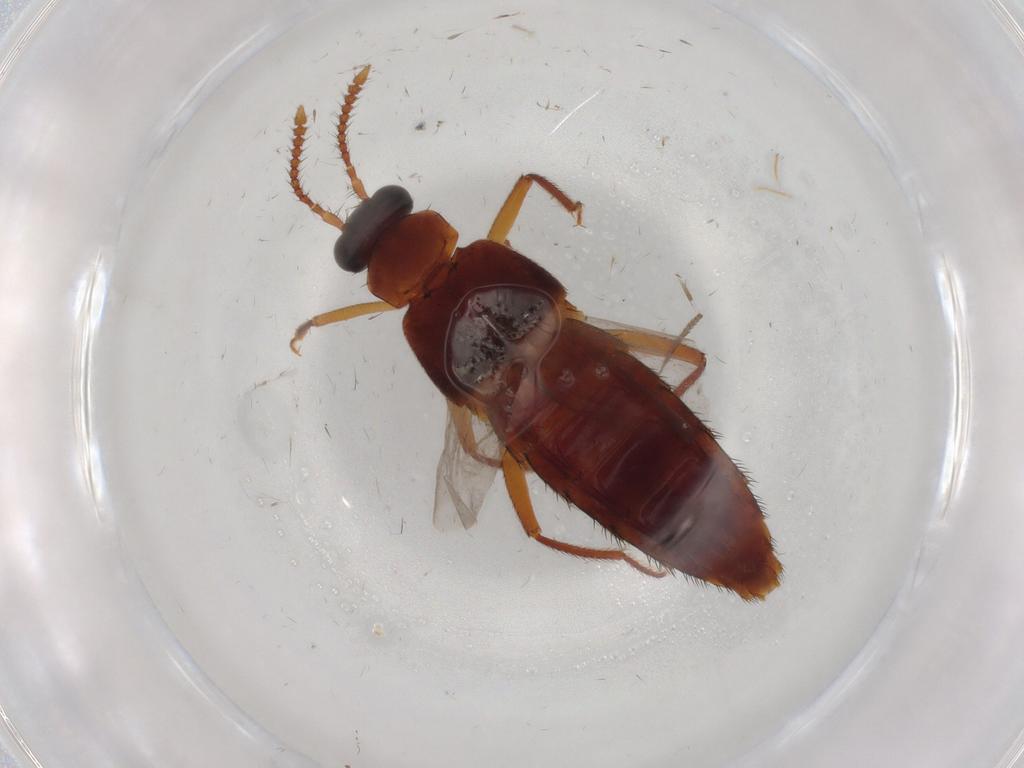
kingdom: Animalia
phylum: Arthropoda
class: Insecta
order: Coleoptera
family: Staphylinidae
